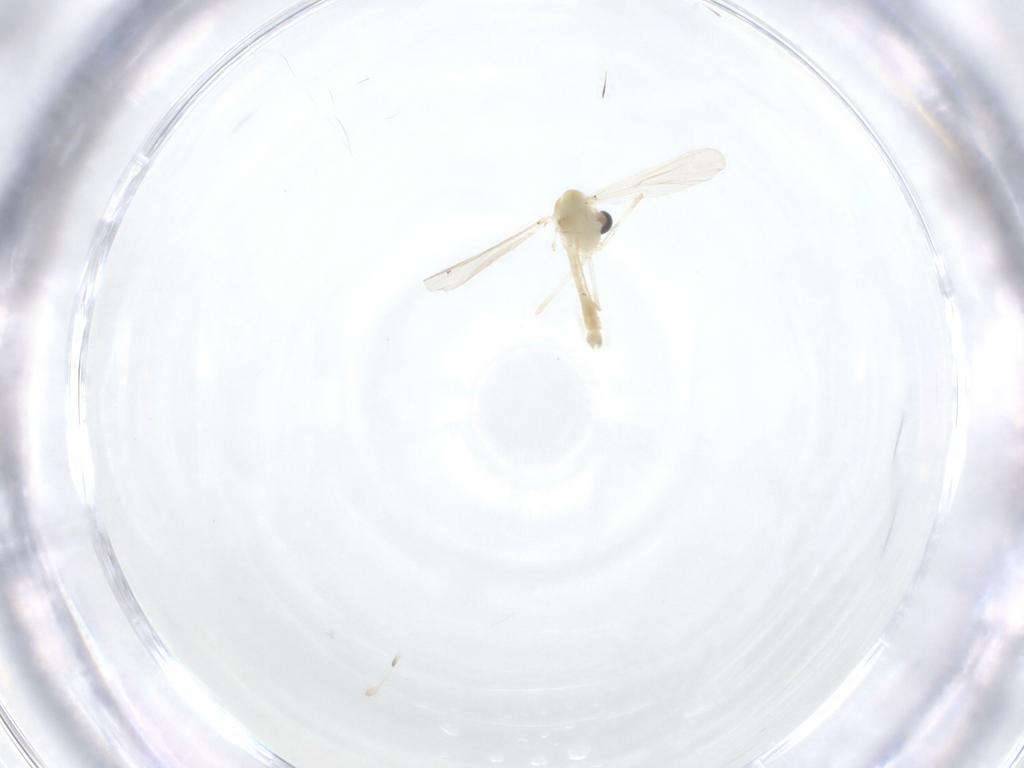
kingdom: Animalia
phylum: Arthropoda
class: Insecta
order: Diptera
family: Chironomidae
